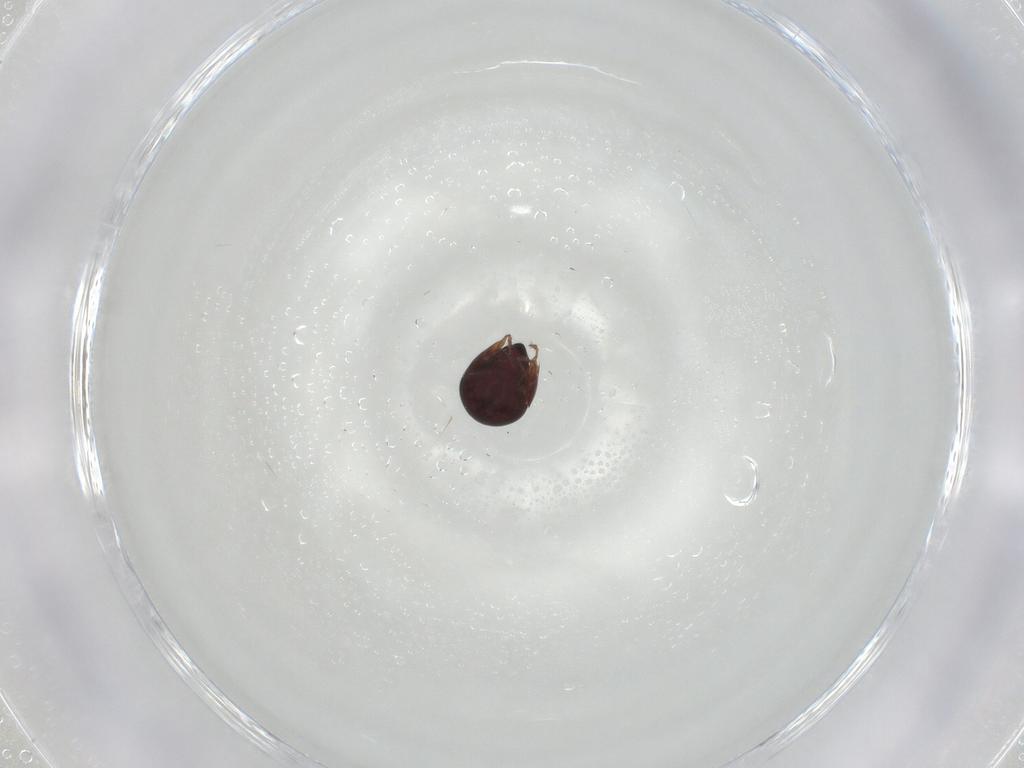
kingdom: Animalia
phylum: Arthropoda
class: Arachnida
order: Sarcoptiformes
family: Galumnidae
